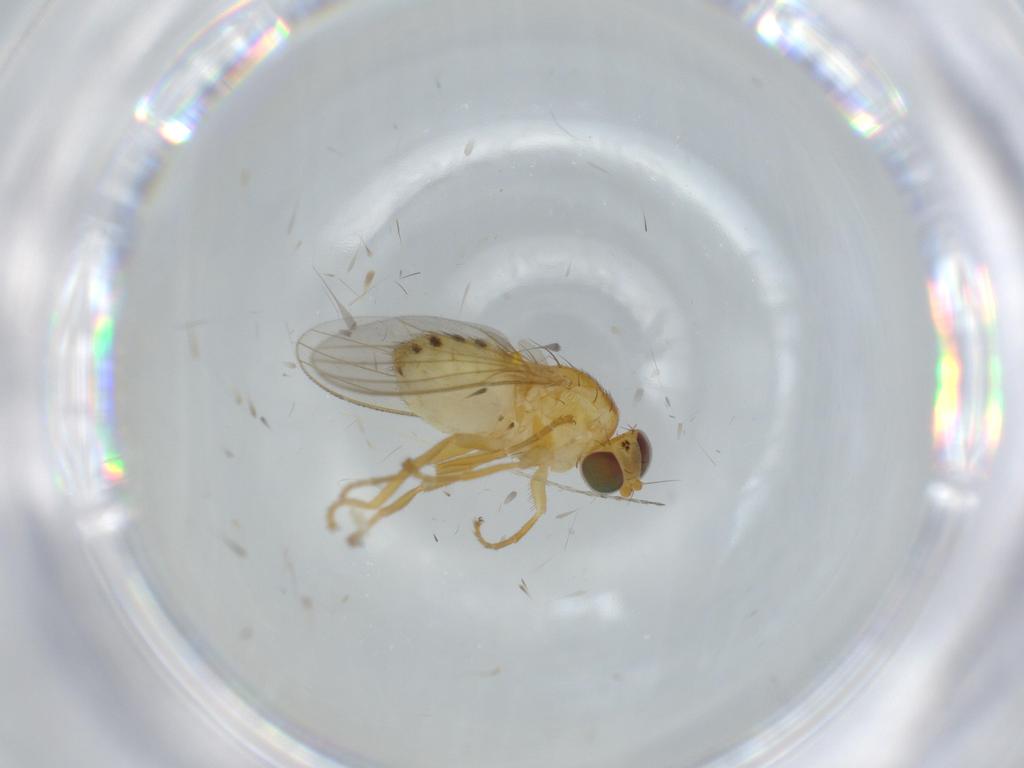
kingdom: Animalia
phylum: Arthropoda
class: Insecta
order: Diptera
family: Chyromyidae
